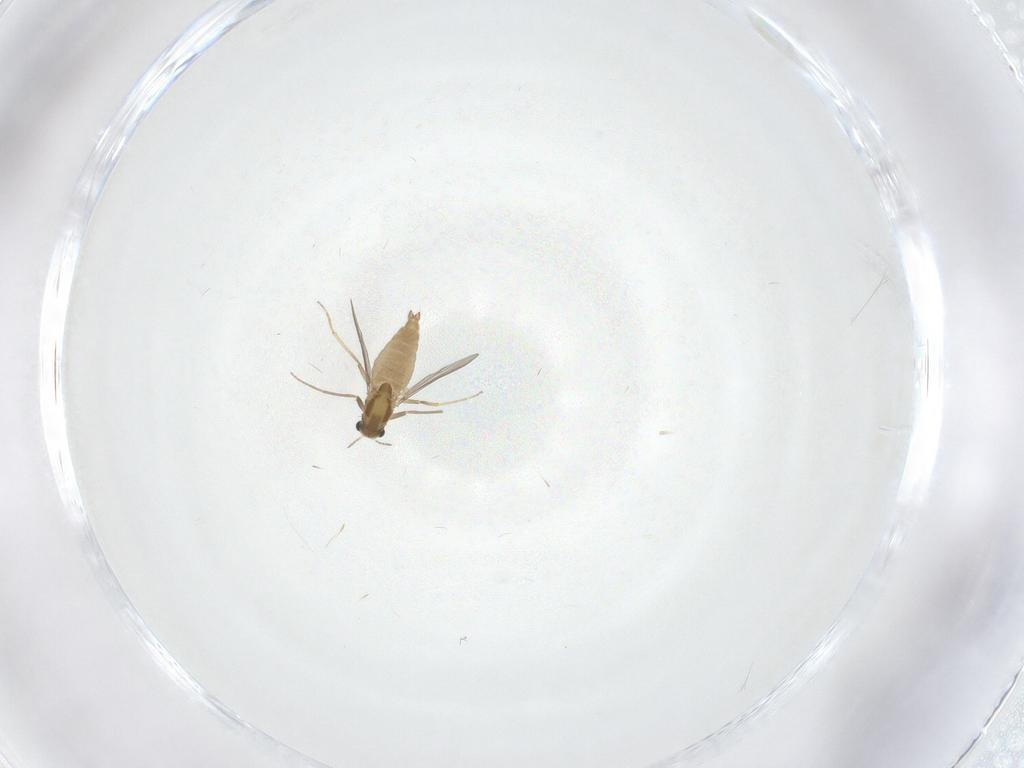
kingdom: Animalia
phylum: Arthropoda
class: Insecta
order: Diptera
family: Chironomidae
